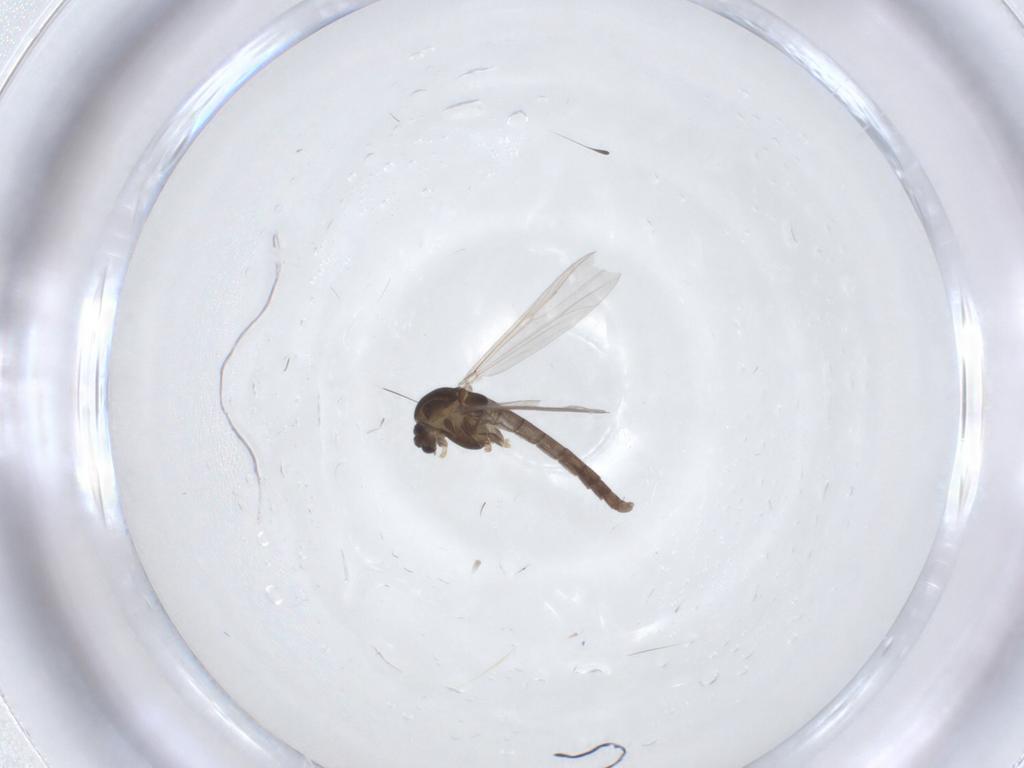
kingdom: Animalia
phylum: Arthropoda
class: Insecta
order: Diptera
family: Chironomidae
